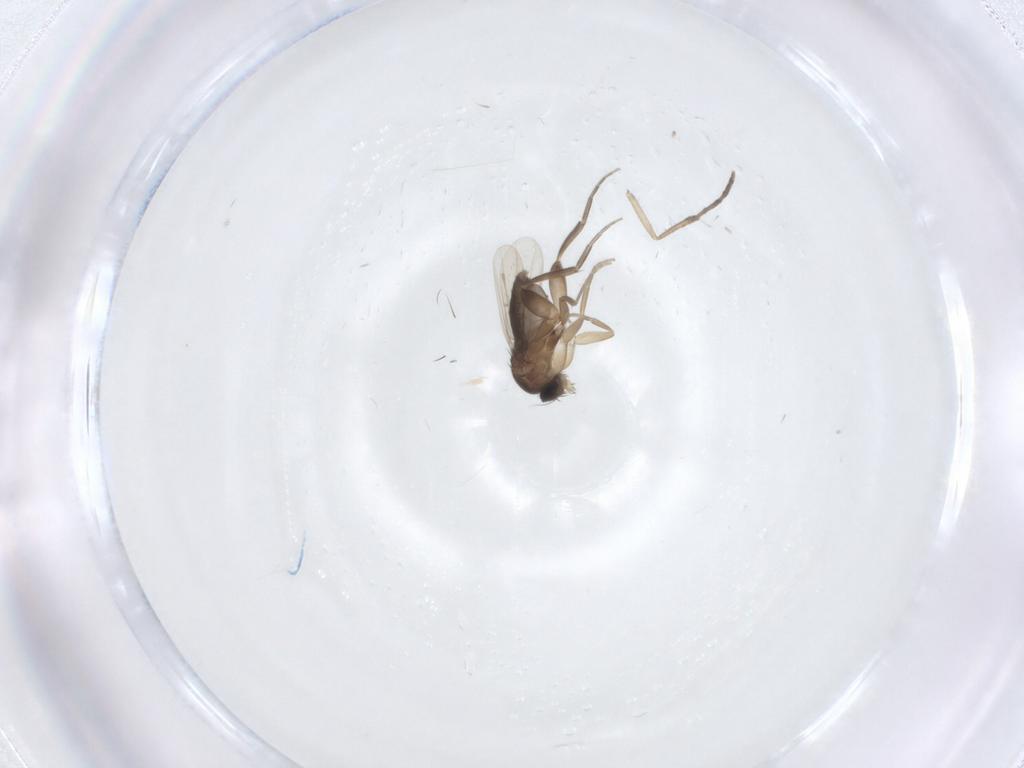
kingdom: Animalia
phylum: Arthropoda
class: Insecta
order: Diptera
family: Phoridae
